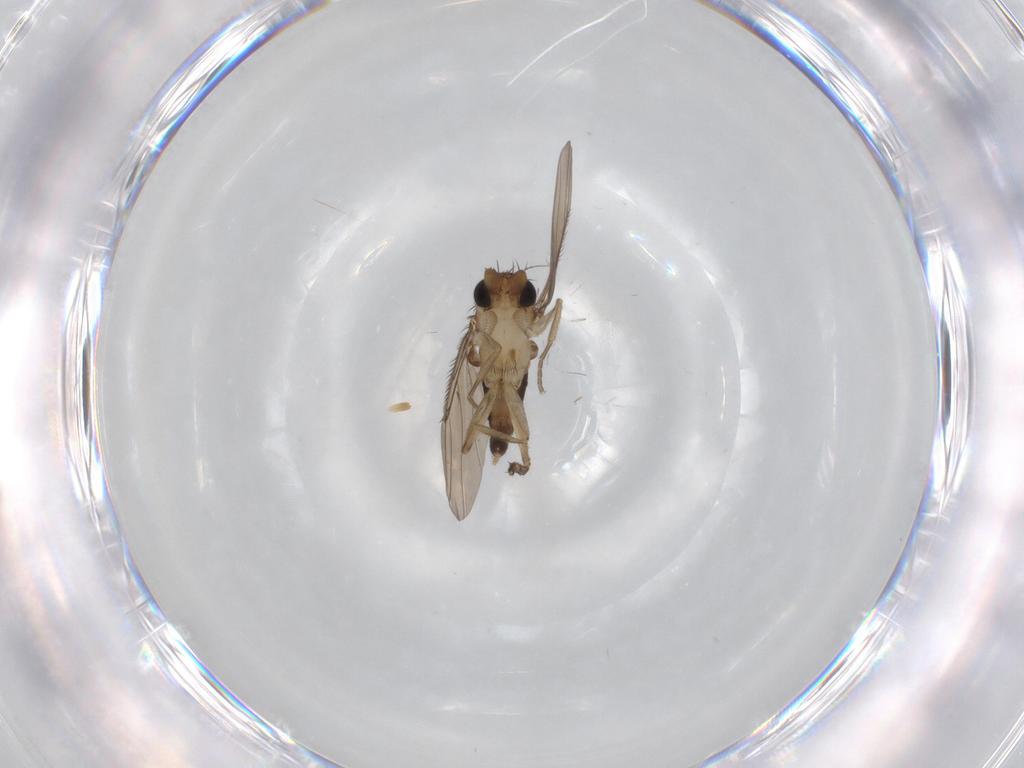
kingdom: Animalia
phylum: Arthropoda
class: Insecta
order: Diptera
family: Phoridae
